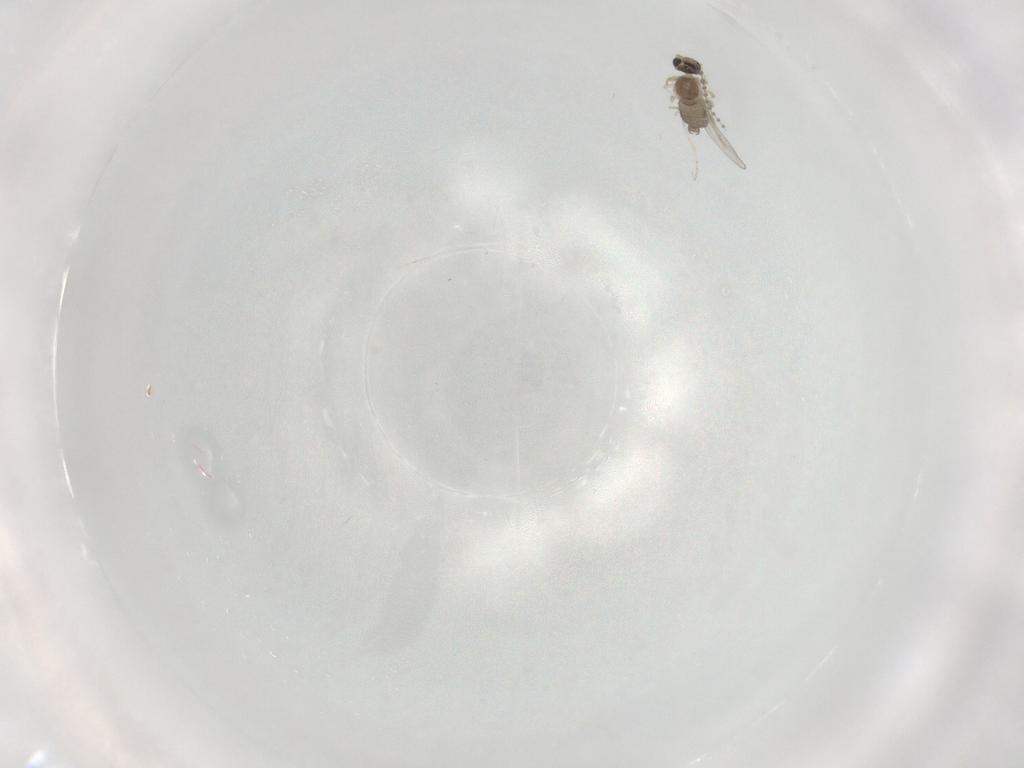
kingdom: Animalia
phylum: Arthropoda
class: Insecta
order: Diptera
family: Cecidomyiidae
